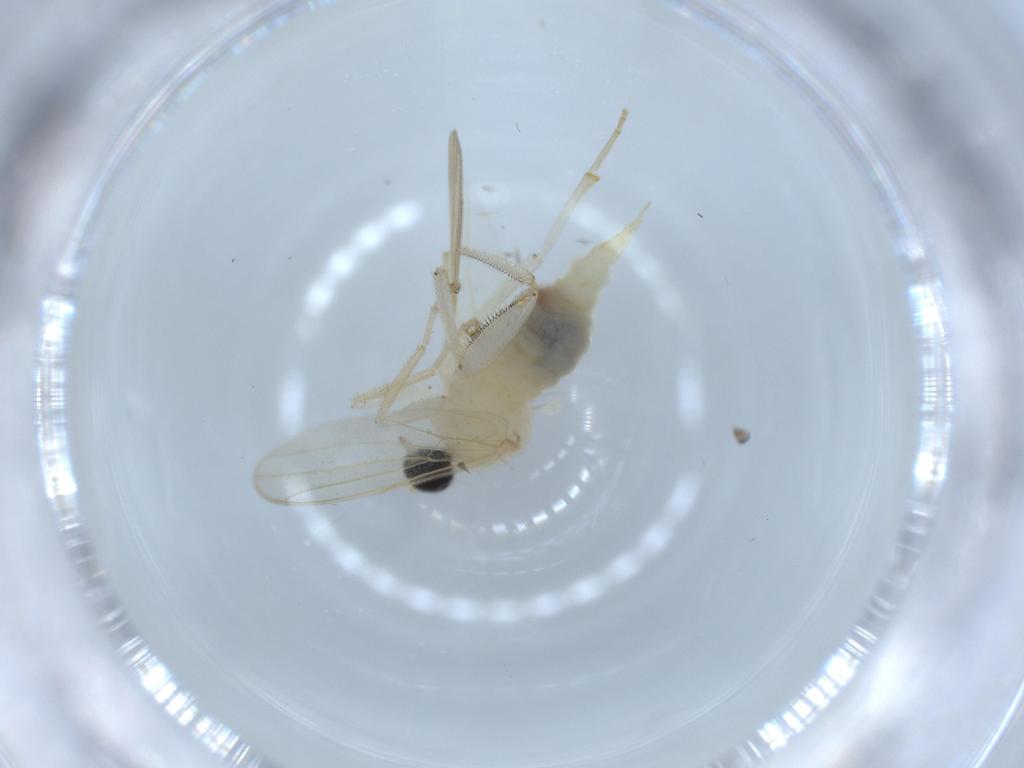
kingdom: Animalia
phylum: Arthropoda
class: Insecta
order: Diptera
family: Hybotidae
